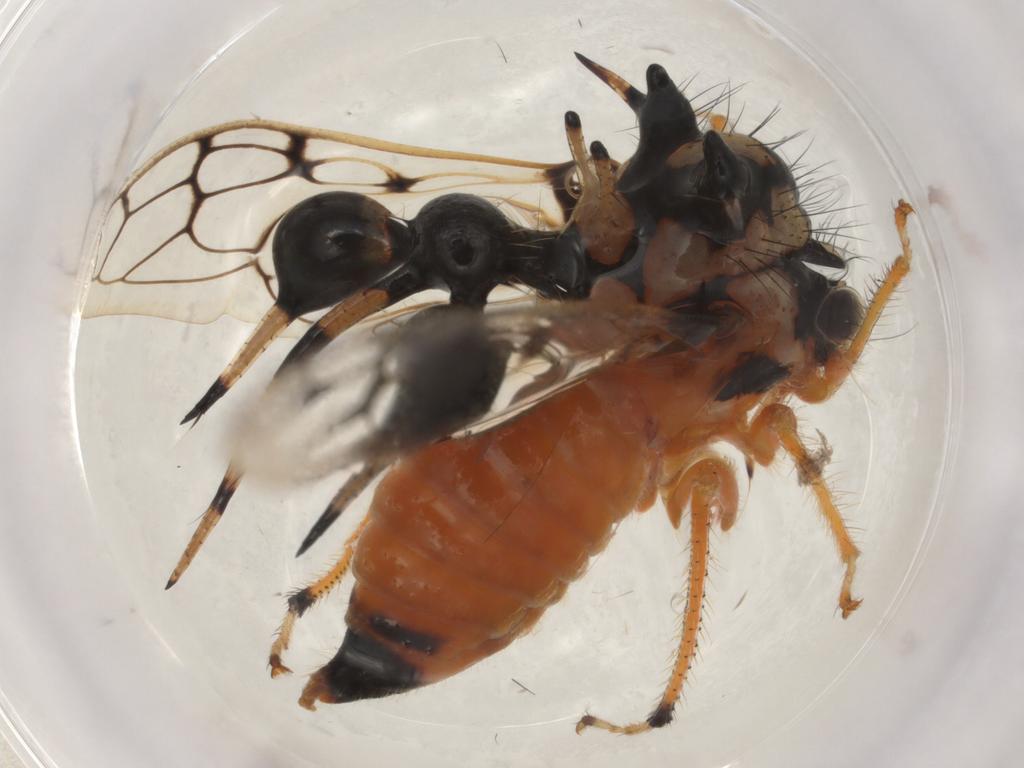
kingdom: Animalia
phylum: Arthropoda
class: Insecta
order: Hemiptera
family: Membracidae
